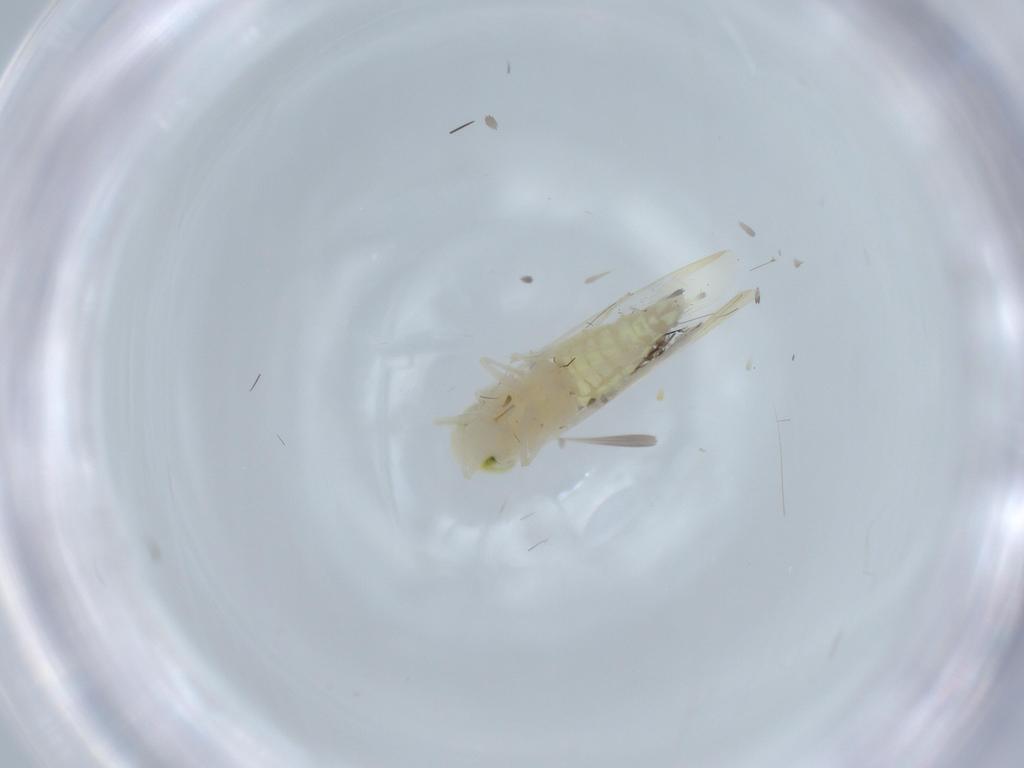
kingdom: Animalia
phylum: Arthropoda
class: Insecta
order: Hemiptera
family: Cicadellidae
